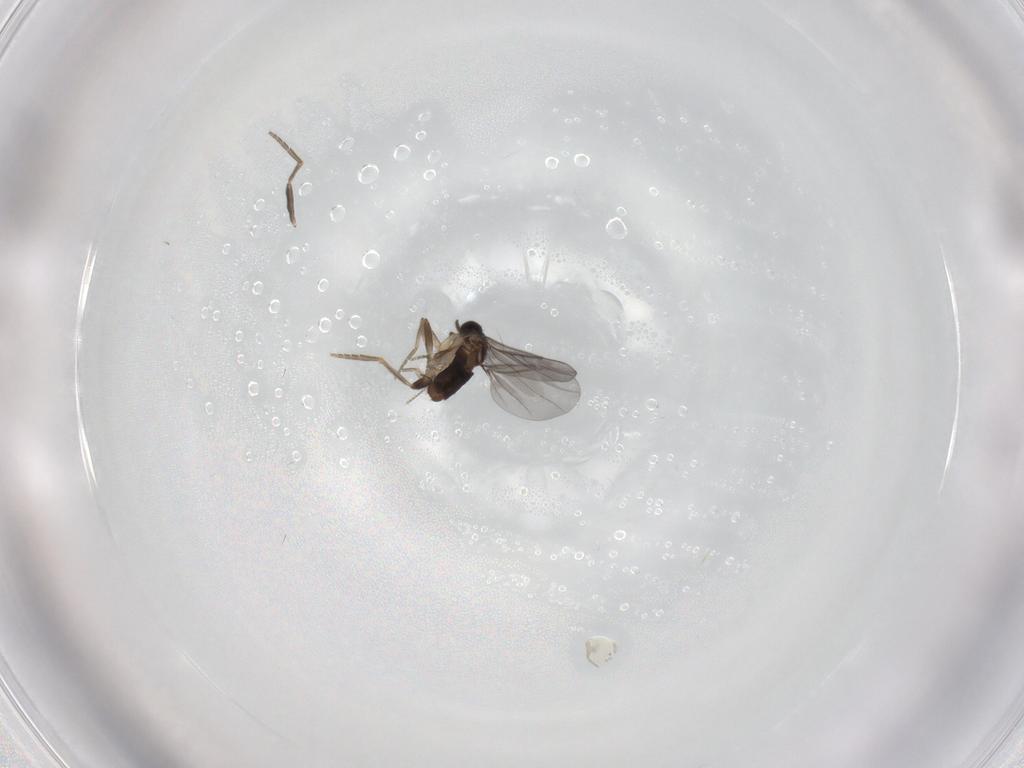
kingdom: Animalia
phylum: Arthropoda
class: Insecta
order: Diptera
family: Ceratopogonidae
